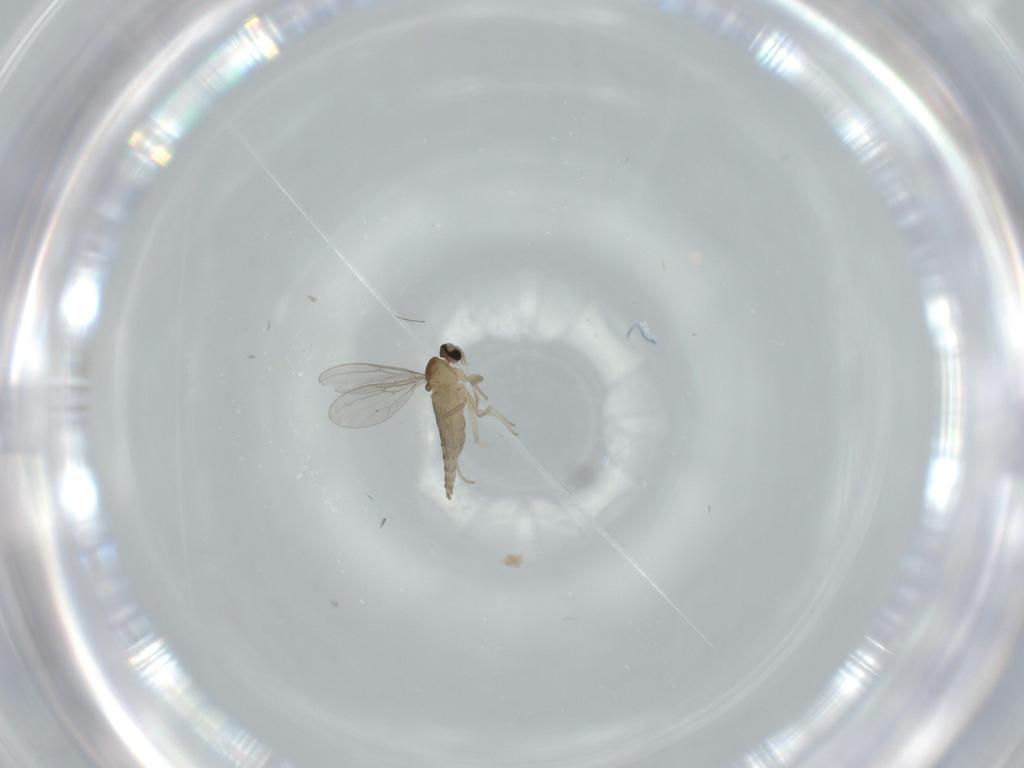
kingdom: Animalia
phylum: Arthropoda
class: Insecta
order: Diptera
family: Cecidomyiidae
